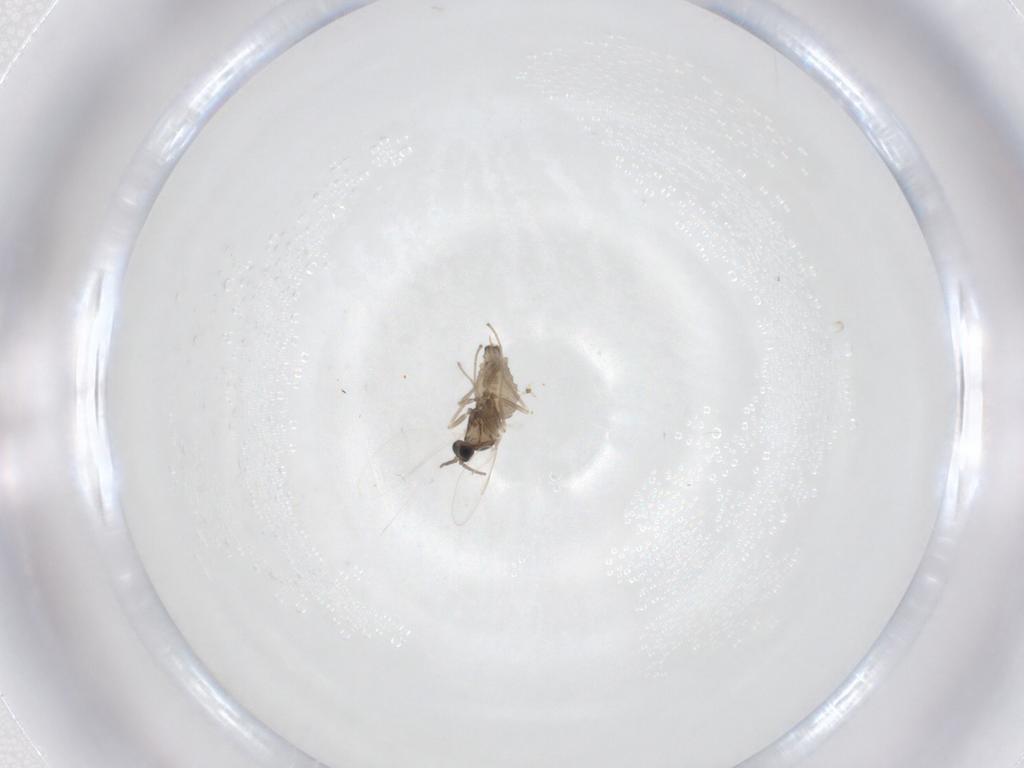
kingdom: Animalia
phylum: Arthropoda
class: Insecta
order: Diptera
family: Cecidomyiidae
